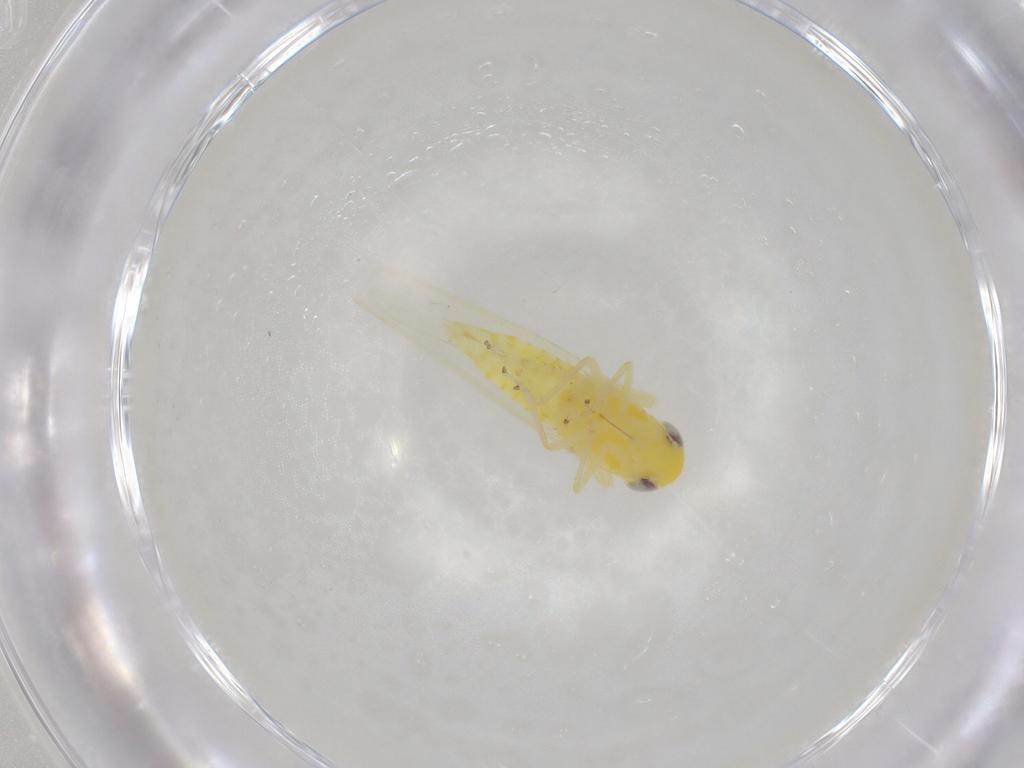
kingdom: Animalia
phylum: Arthropoda
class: Insecta
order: Hemiptera
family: Cicadellidae
